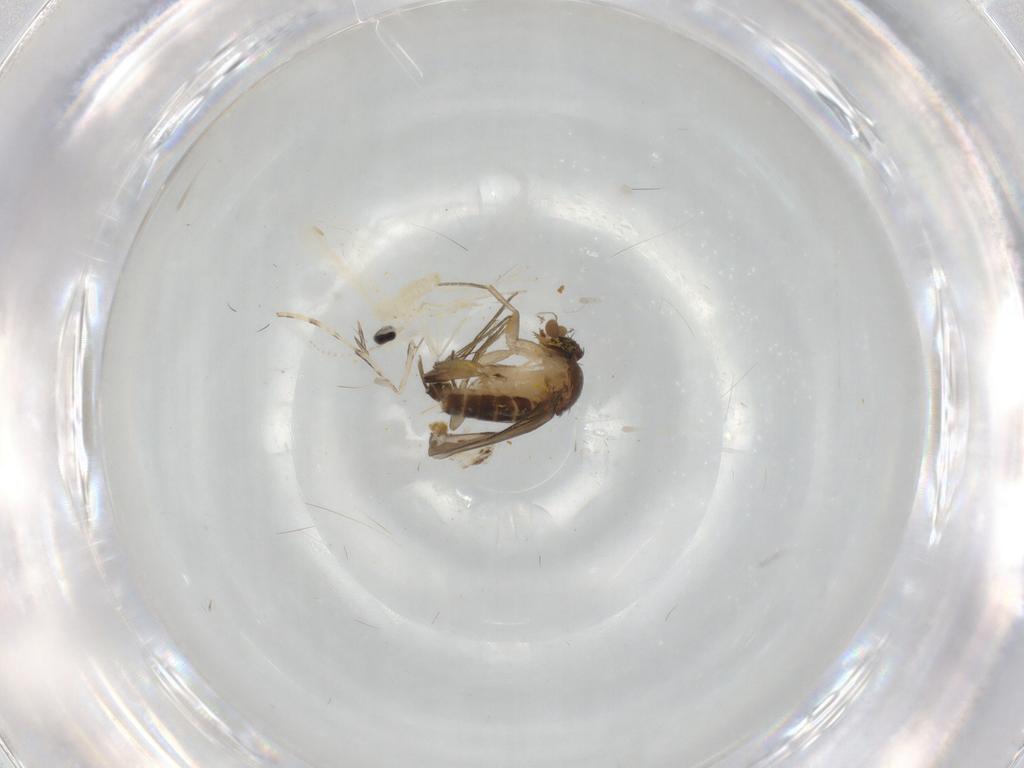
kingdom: Animalia
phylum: Arthropoda
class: Insecta
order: Diptera
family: Cecidomyiidae
